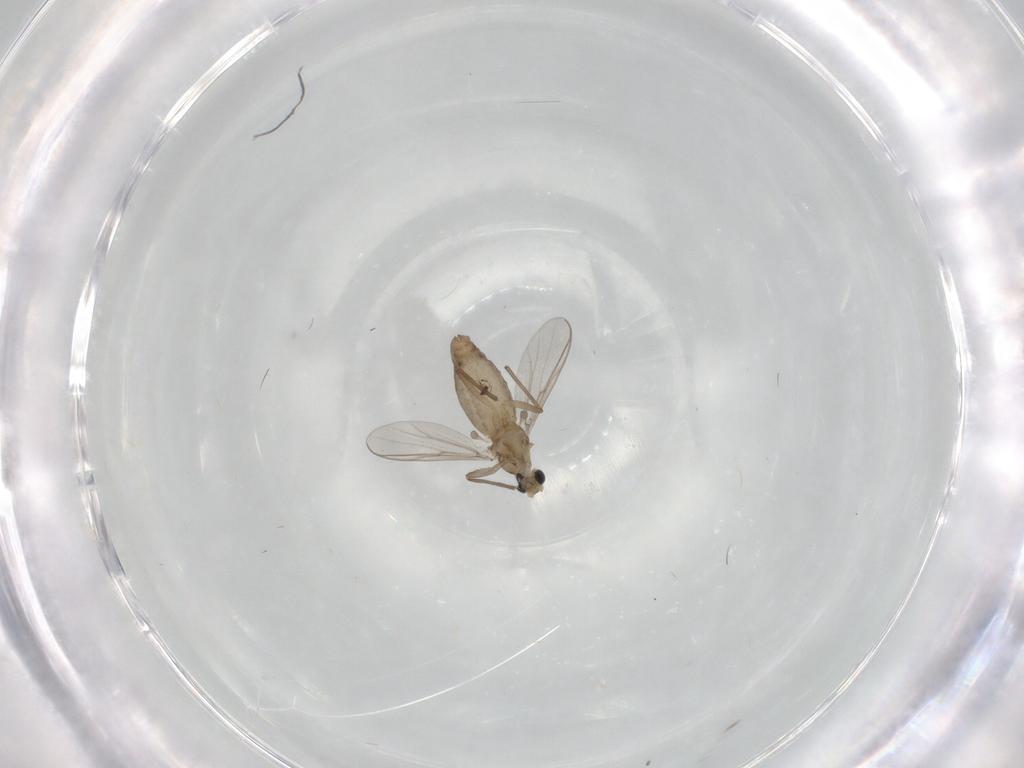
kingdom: Animalia
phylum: Arthropoda
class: Insecta
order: Diptera
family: Chironomidae
